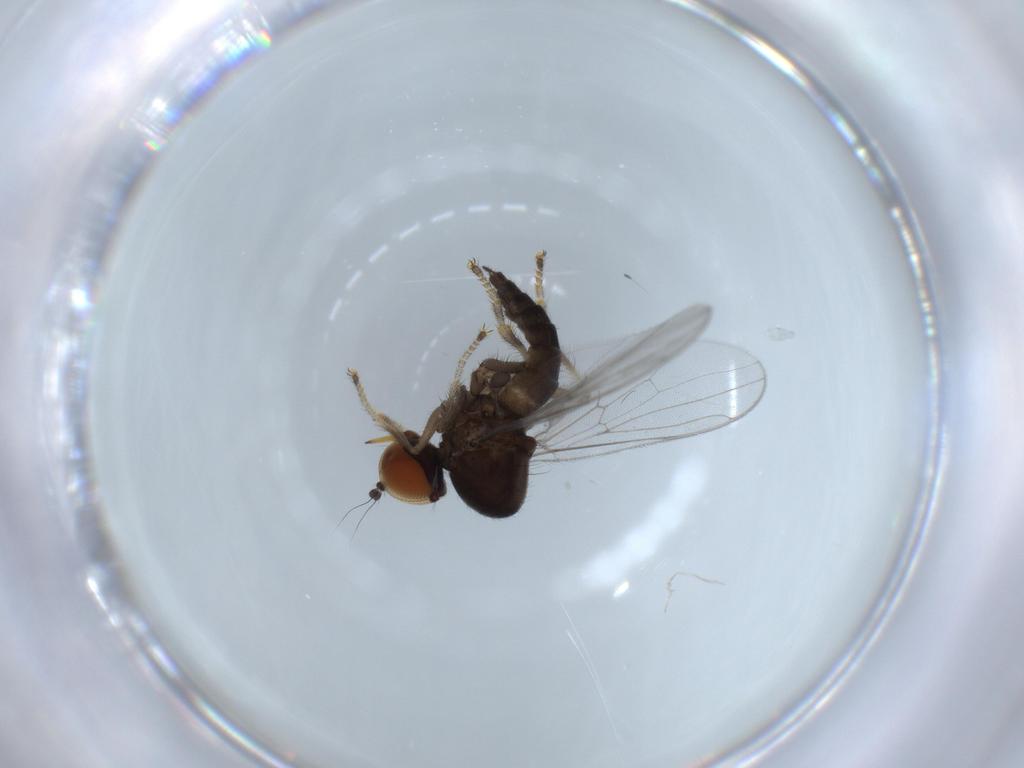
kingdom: Animalia
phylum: Arthropoda
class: Insecta
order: Diptera
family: Hybotidae
